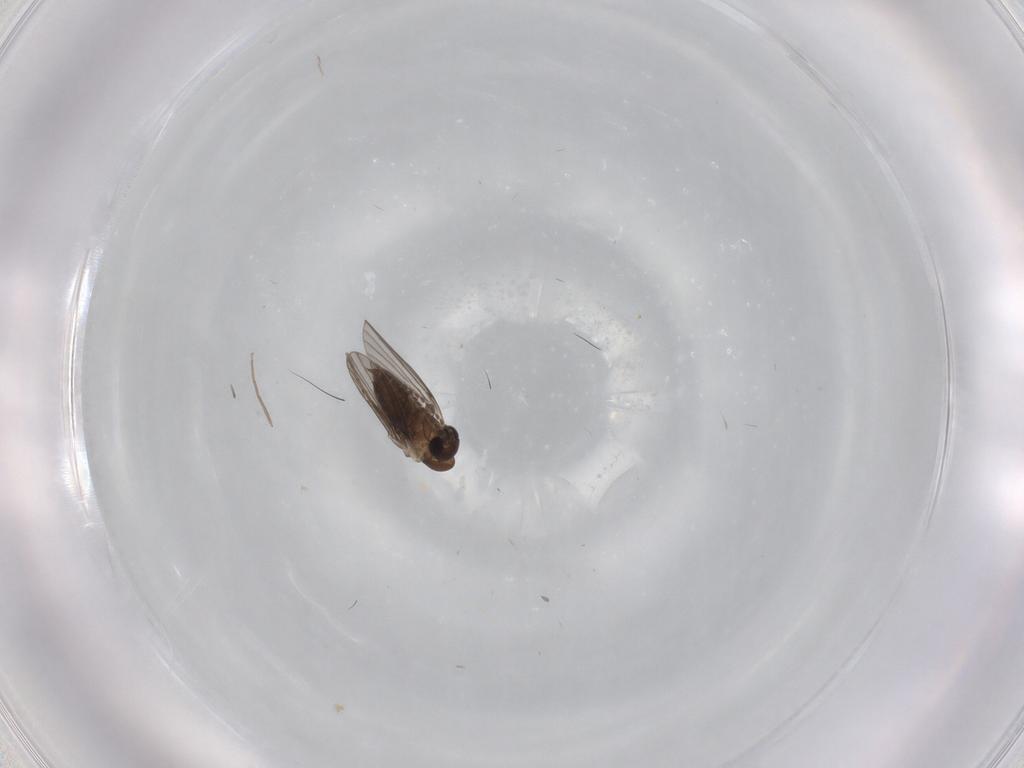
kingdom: Animalia
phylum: Arthropoda
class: Insecta
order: Diptera
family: Chironomidae
